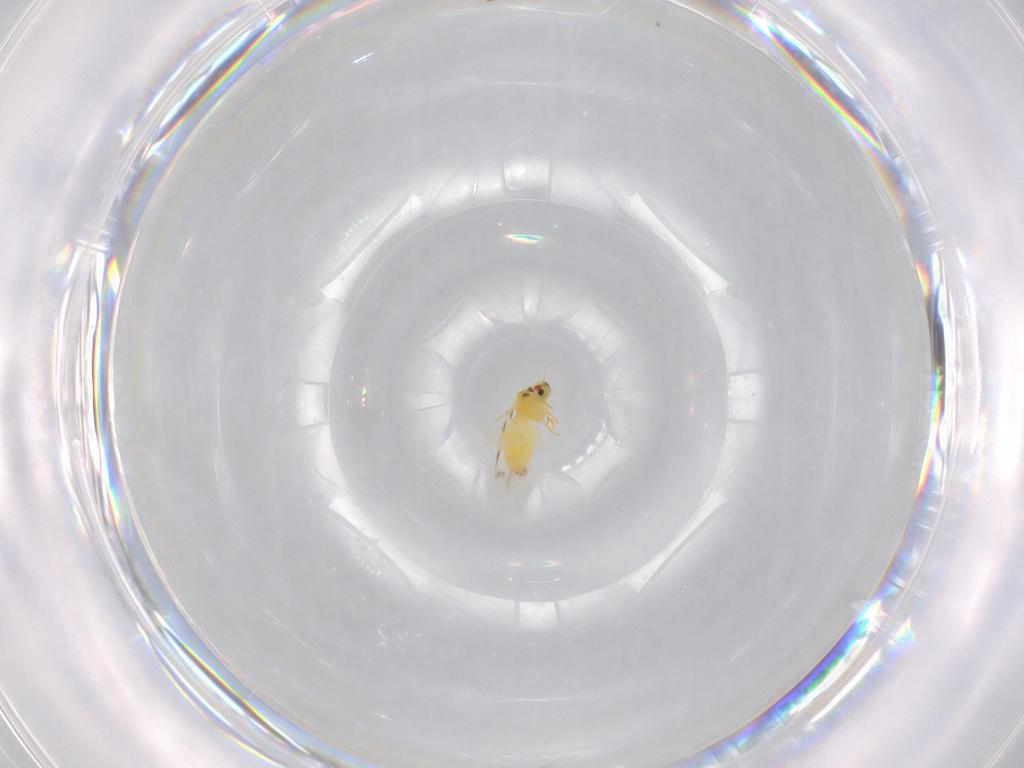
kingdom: Animalia
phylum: Arthropoda
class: Insecta
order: Hemiptera
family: Aleyrodidae
